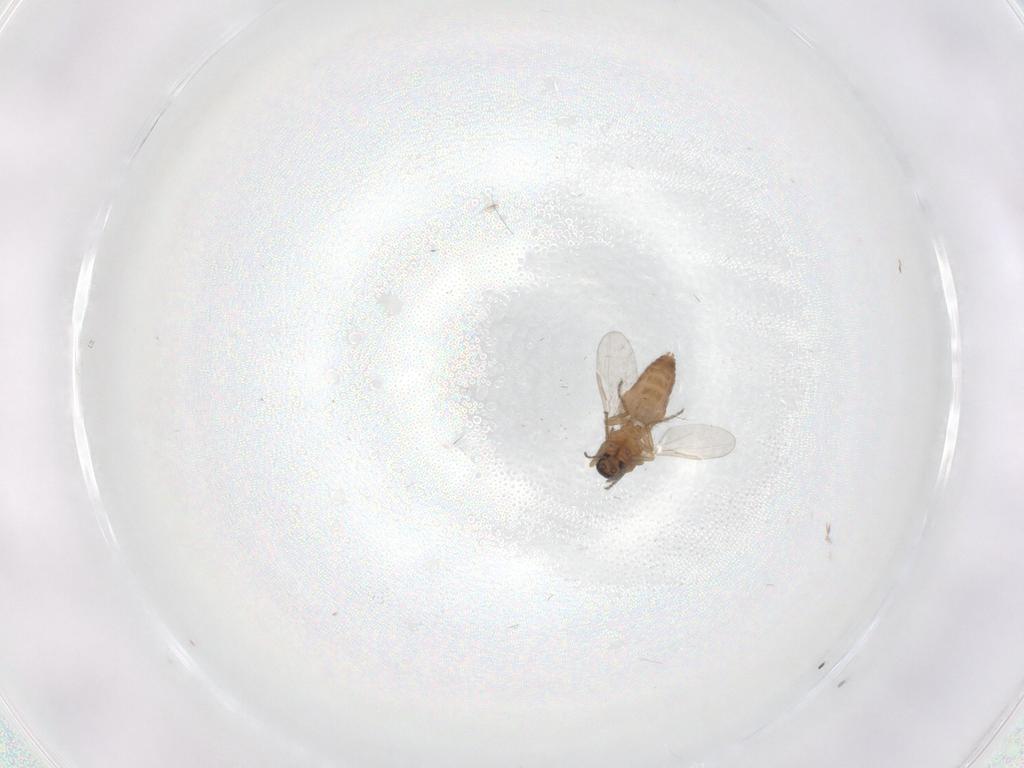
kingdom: Animalia
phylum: Arthropoda
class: Insecta
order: Diptera
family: Ceratopogonidae
